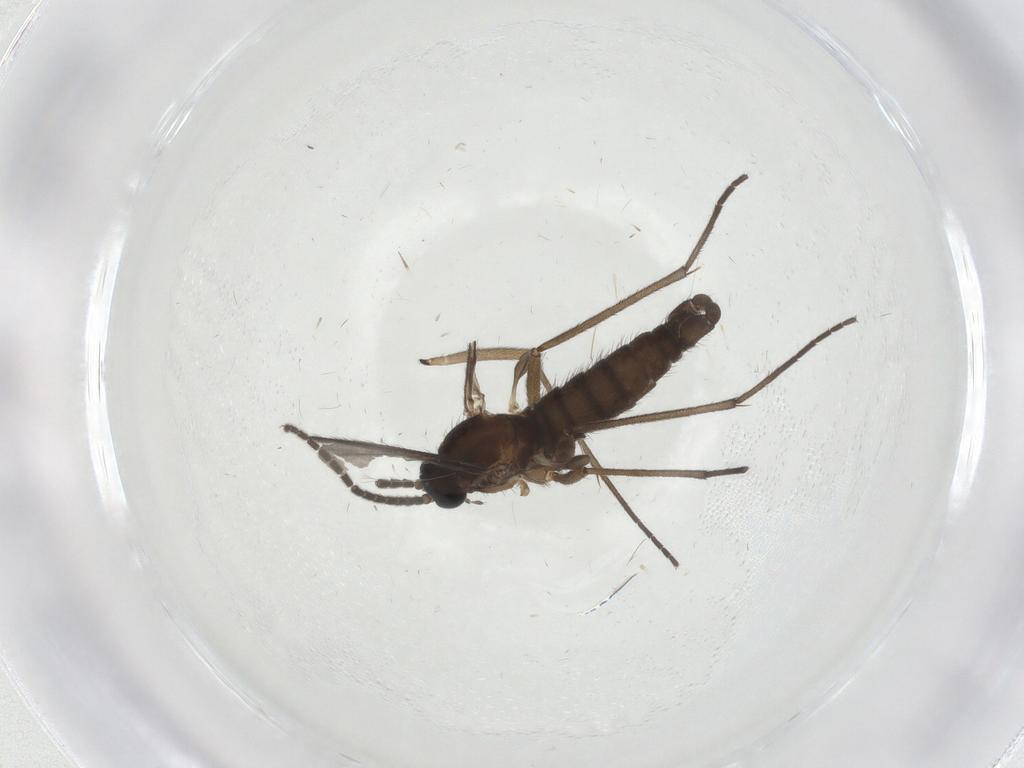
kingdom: Animalia
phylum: Arthropoda
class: Insecta
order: Diptera
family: Sciaridae
